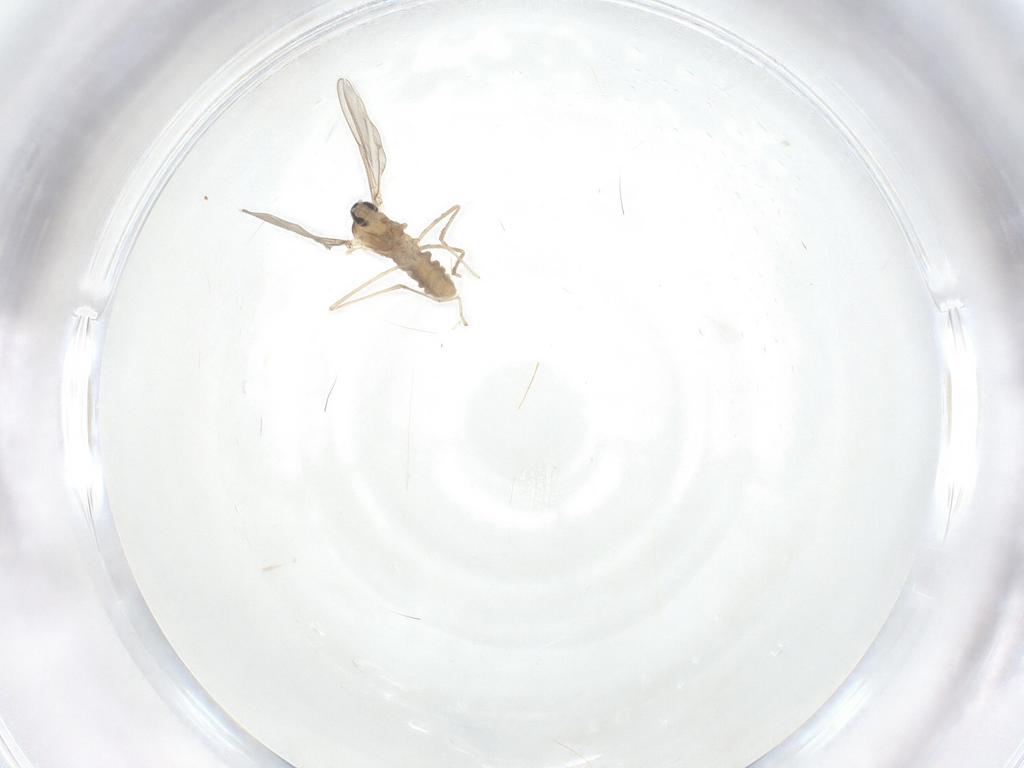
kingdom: Animalia
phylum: Arthropoda
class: Insecta
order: Diptera
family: Cecidomyiidae
